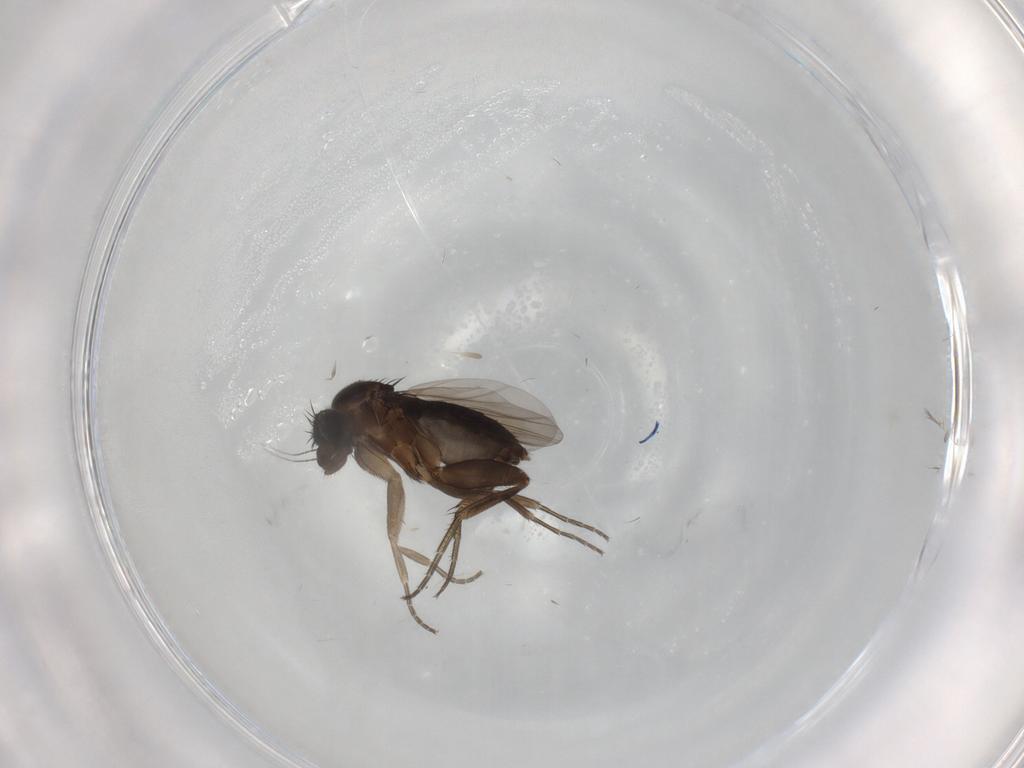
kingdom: Animalia
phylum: Arthropoda
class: Insecta
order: Diptera
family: Phoridae
